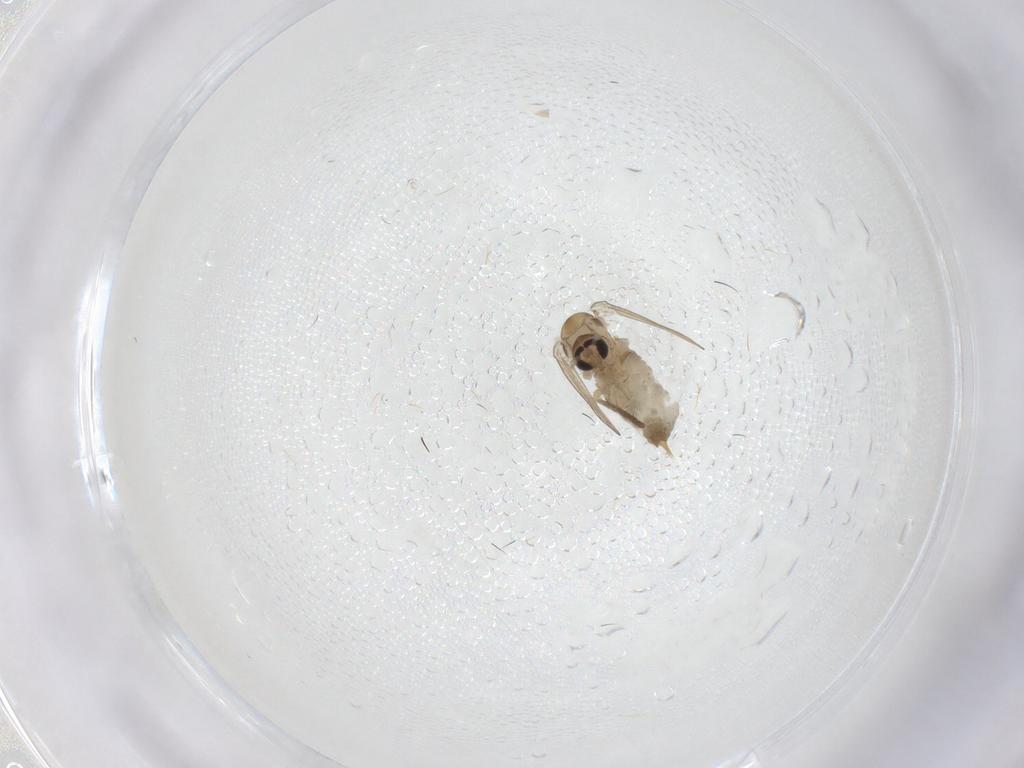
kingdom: Animalia
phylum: Arthropoda
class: Insecta
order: Diptera
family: Psychodidae
